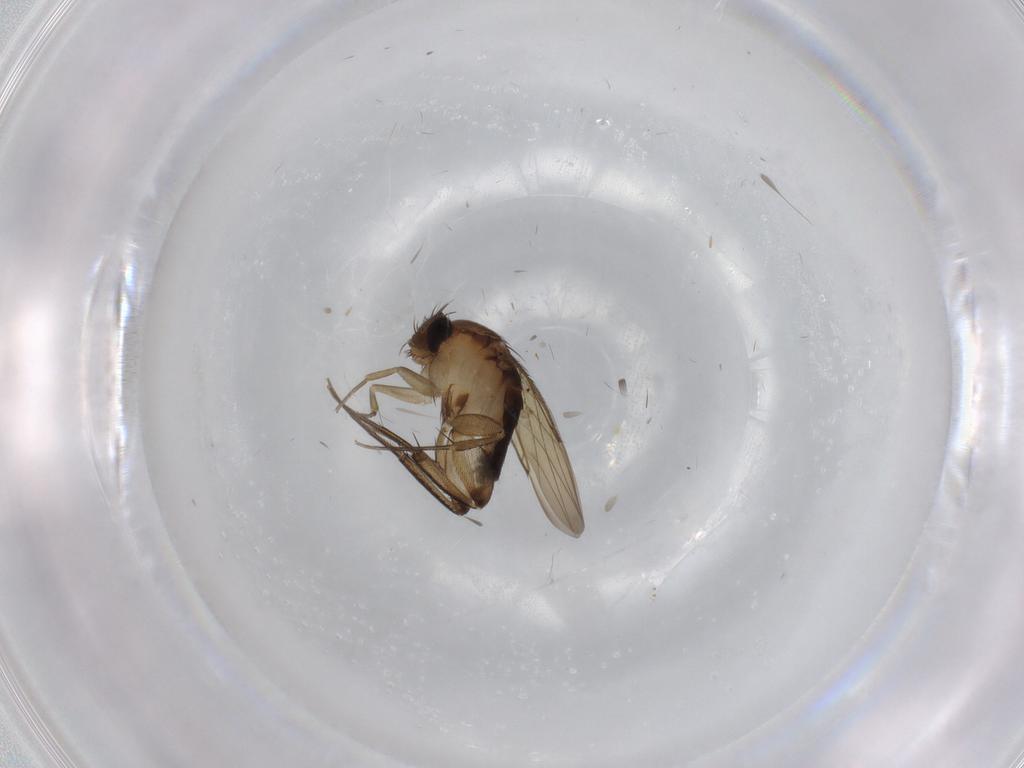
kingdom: Animalia
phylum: Arthropoda
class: Insecta
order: Diptera
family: Phoridae
